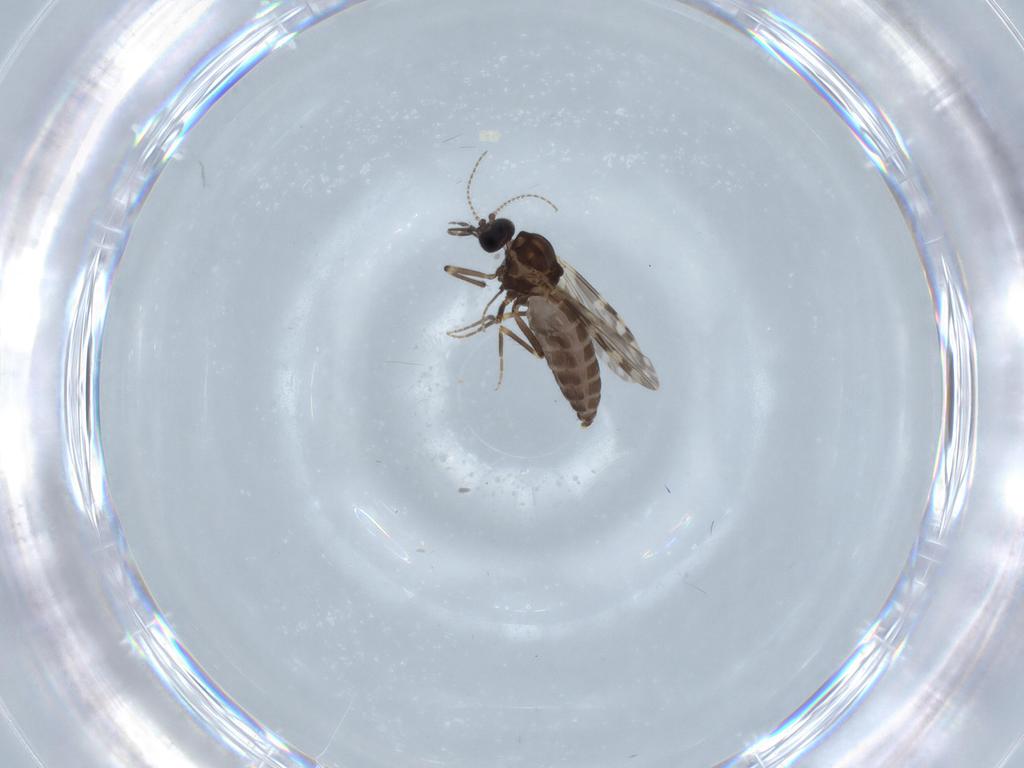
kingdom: Animalia
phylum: Arthropoda
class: Insecta
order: Diptera
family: Ceratopogonidae
